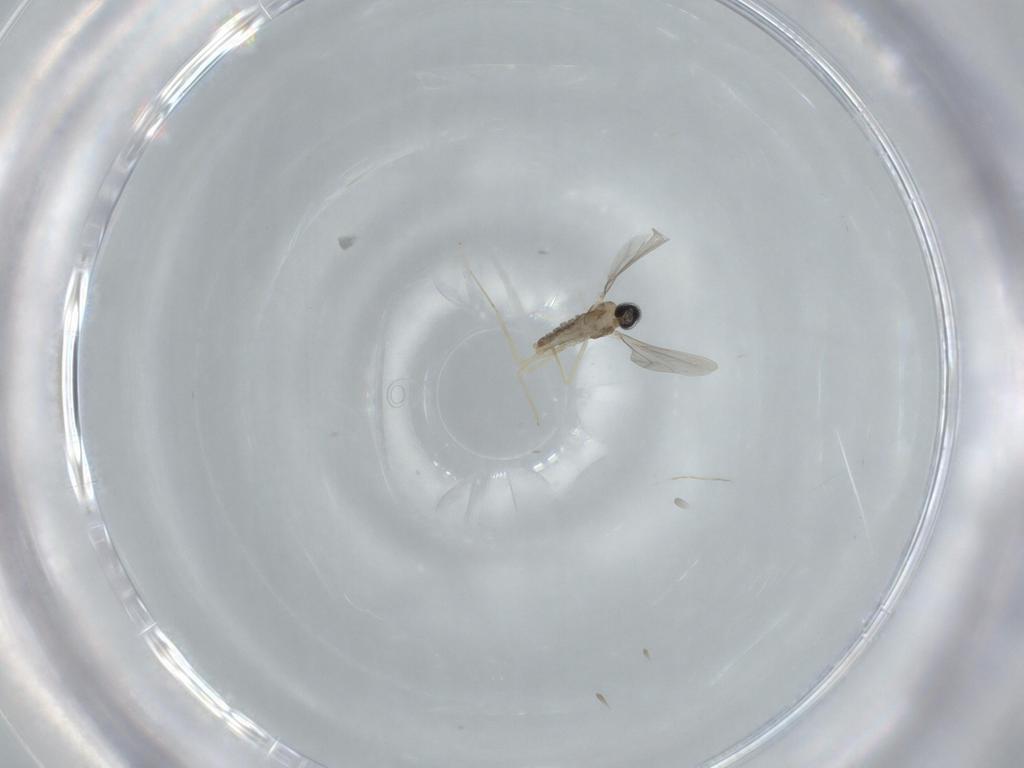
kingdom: Animalia
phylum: Arthropoda
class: Insecta
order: Diptera
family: Cecidomyiidae
